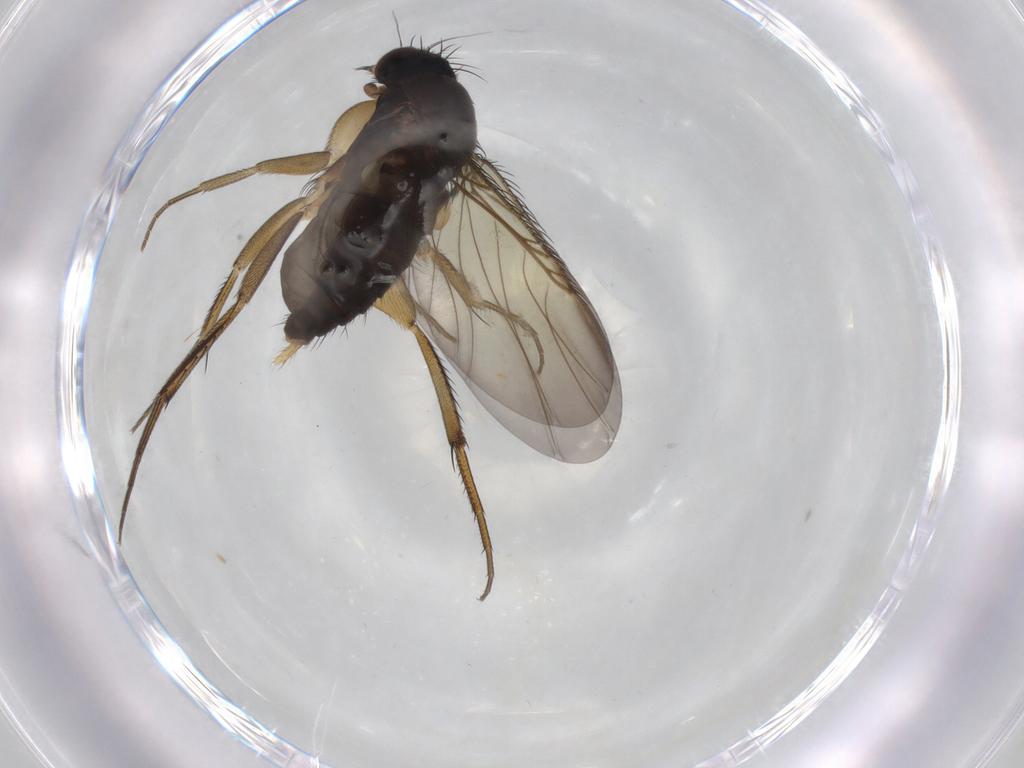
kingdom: Animalia
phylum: Arthropoda
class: Insecta
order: Diptera
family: Phoridae
